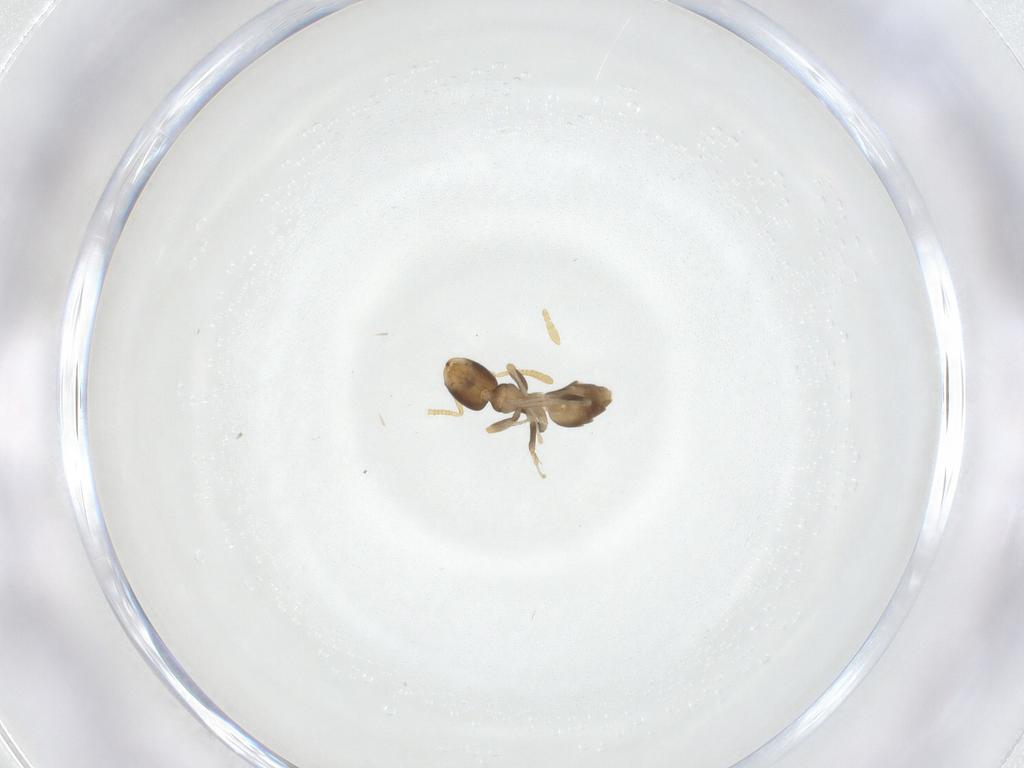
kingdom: Animalia
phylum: Arthropoda
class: Insecta
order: Hymenoptera
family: Formicidae
